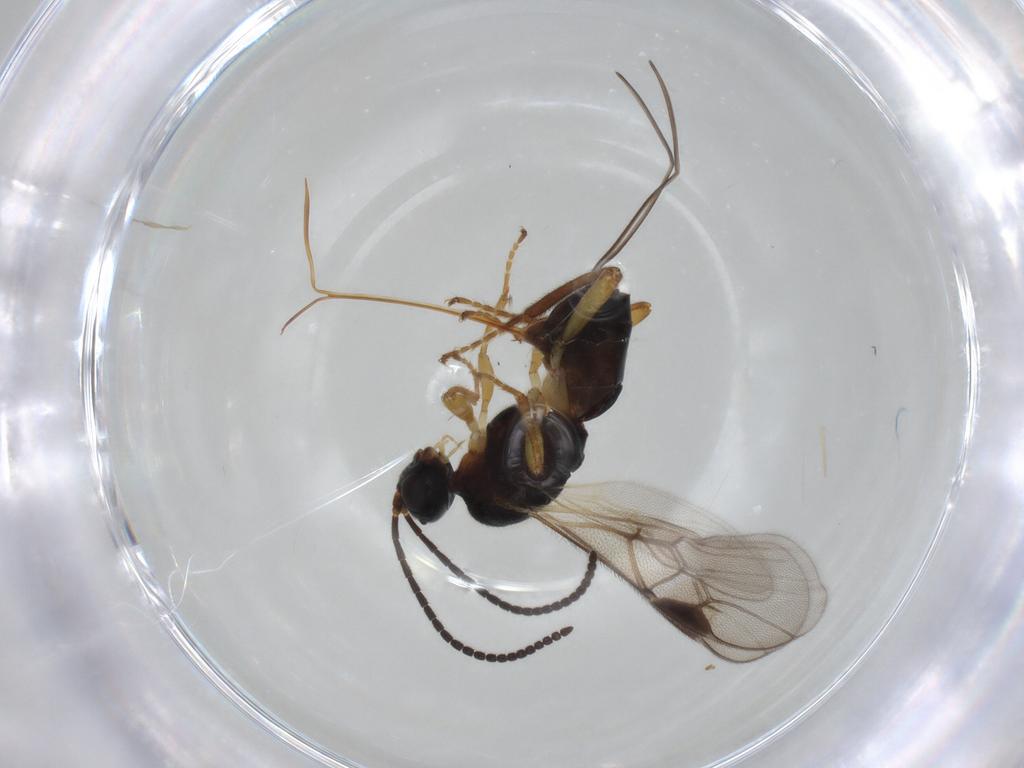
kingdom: Animalia
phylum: Arthropoda
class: Insecta
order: Hymenoptera
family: Braconidae
